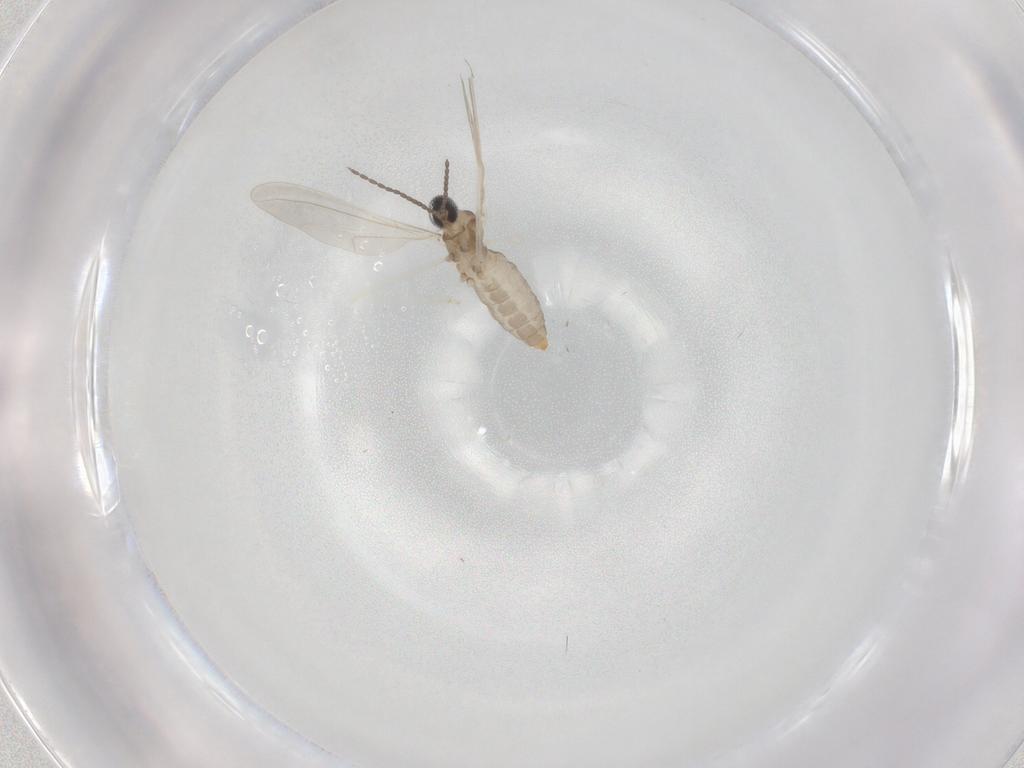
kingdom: Animalia
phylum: Arthropoda
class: Insecta
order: Diptera
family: Cecidomyiidae
